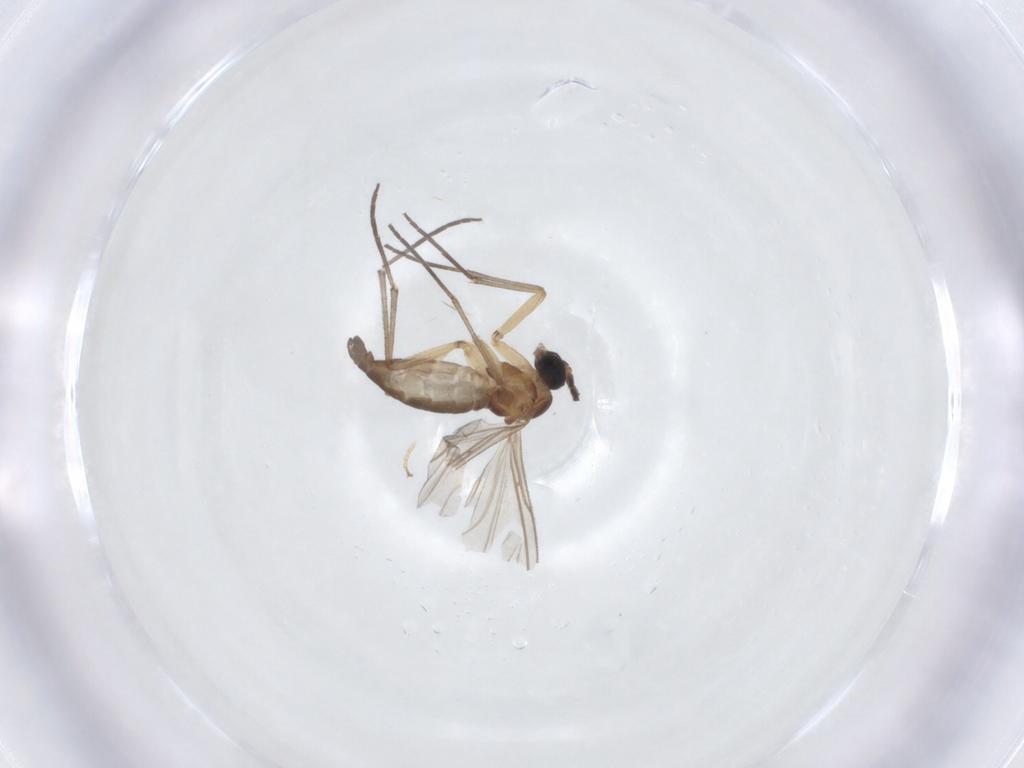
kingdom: Animalia
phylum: Arthropoda
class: Insecta
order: Diptera
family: Sciaridae
